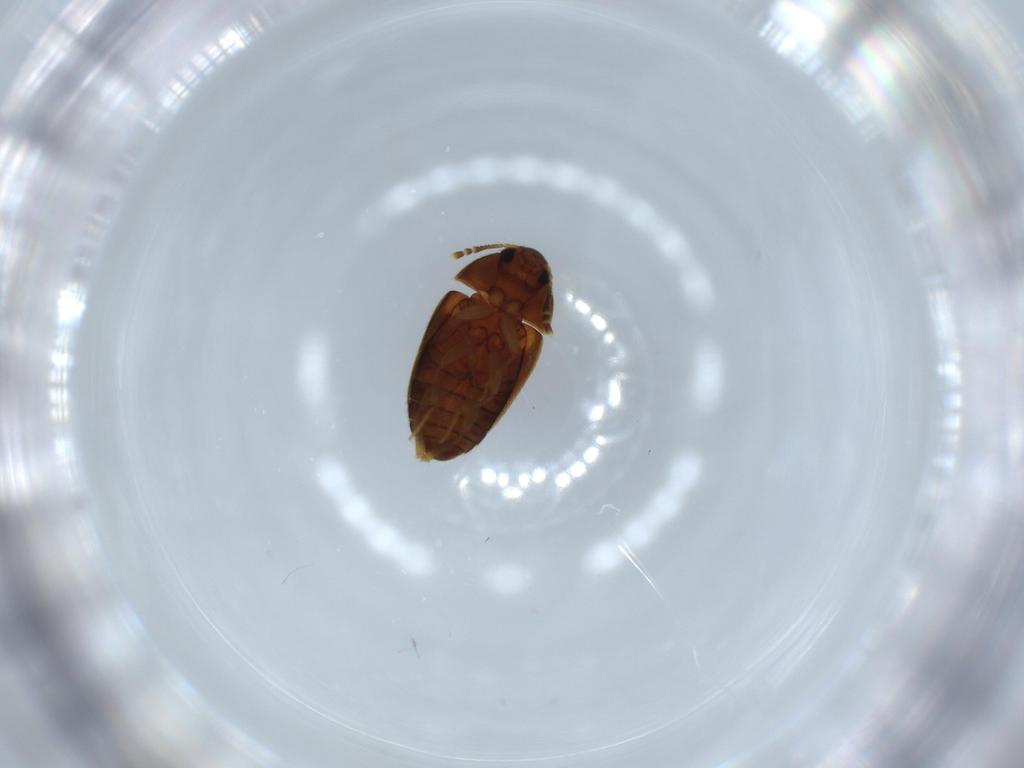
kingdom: Animalia
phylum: Arthropoda
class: Insecta
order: Coleoptera
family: Mycetophagidae
